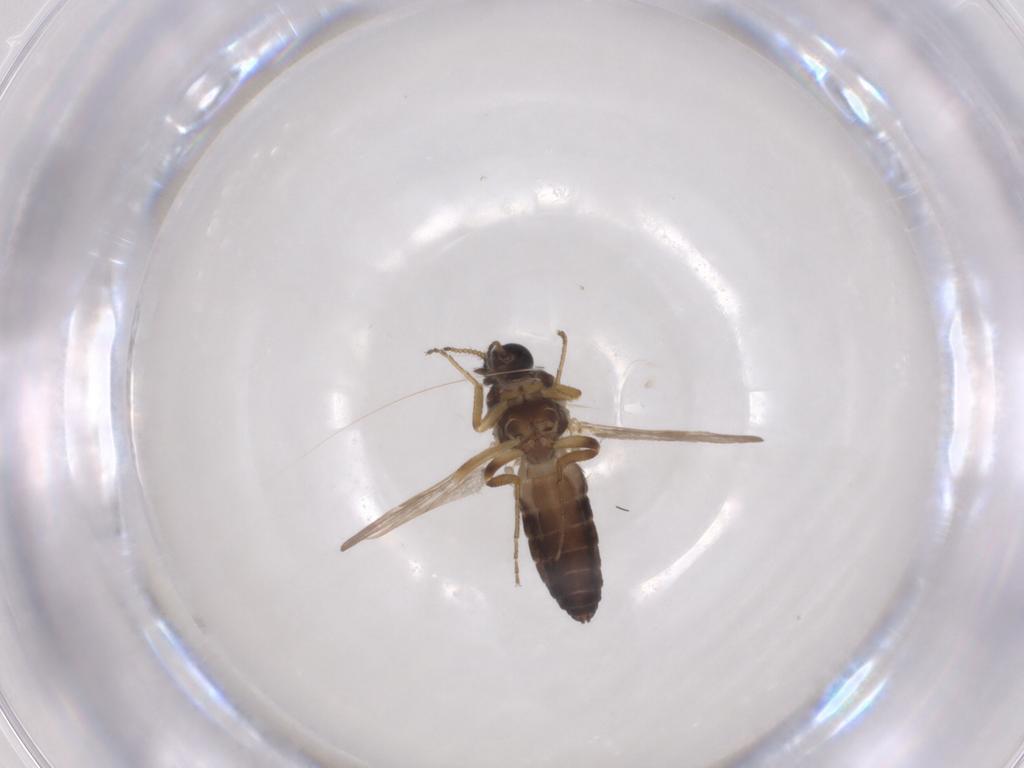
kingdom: Animalia
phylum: Arthropoda
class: Insecta
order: Diptera
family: Ceratopogonidae
